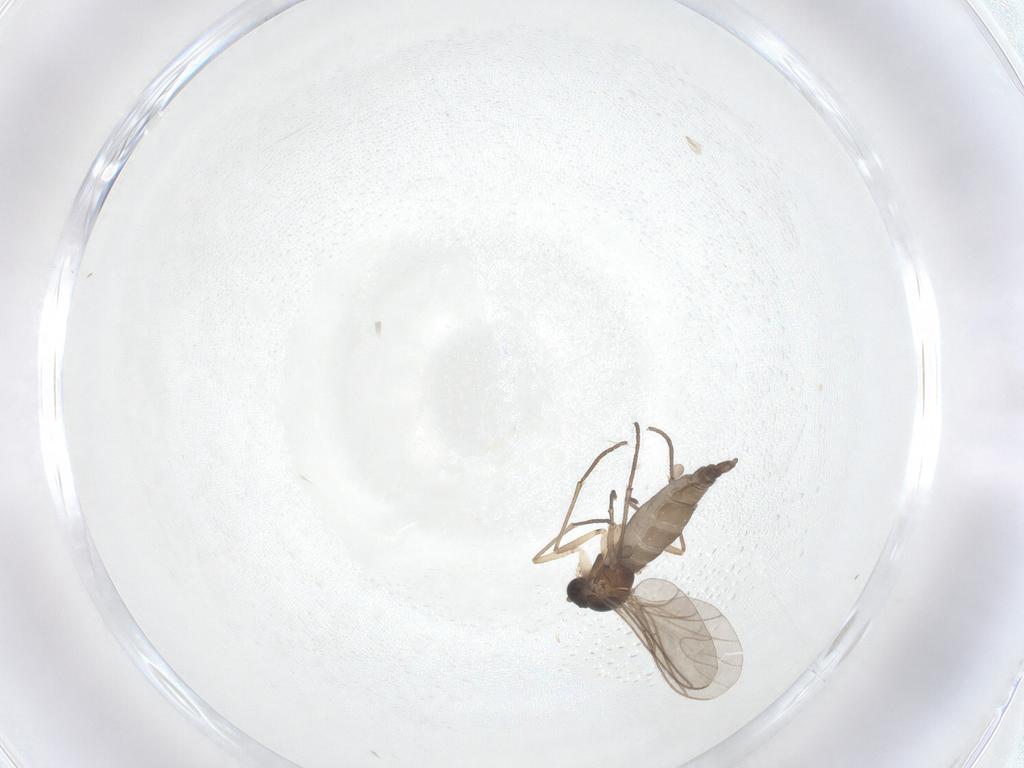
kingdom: Animalia
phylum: Arthropoda
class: Insecta
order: Diptera
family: Sciaridae
